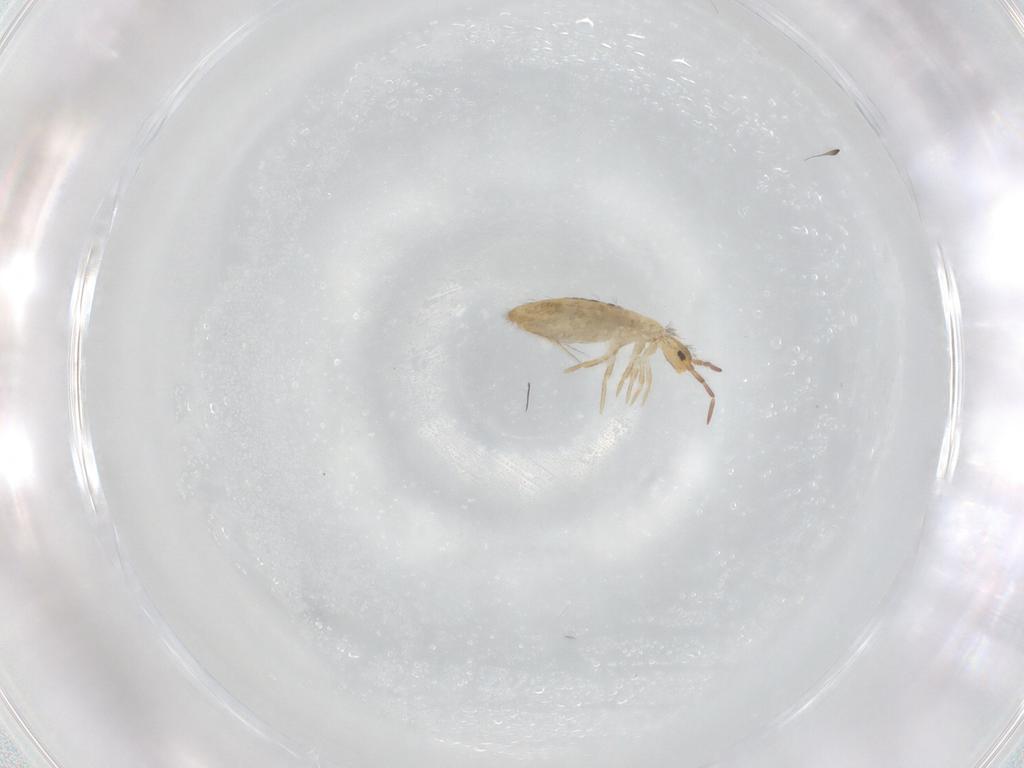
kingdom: Animalia
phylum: Arthropoda
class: Collembola
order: Entomobryomorpha
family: Entomobryidae
